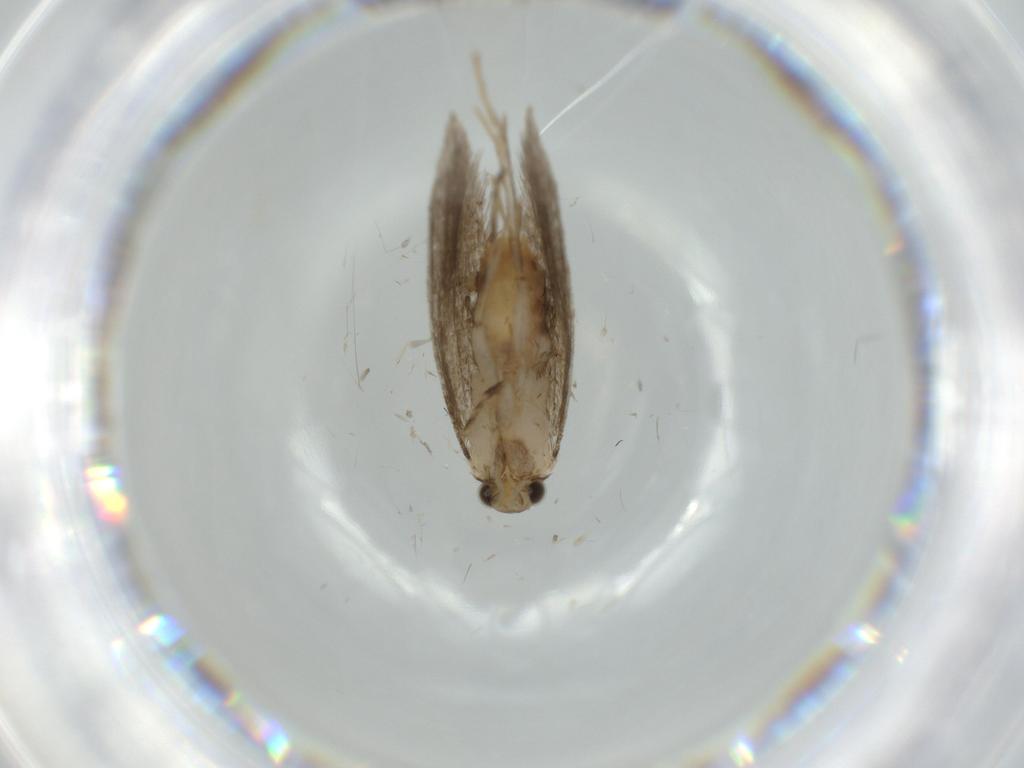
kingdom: Animalia
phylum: Arthropoda
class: Insecta
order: Lepidoptera
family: Tineidae
